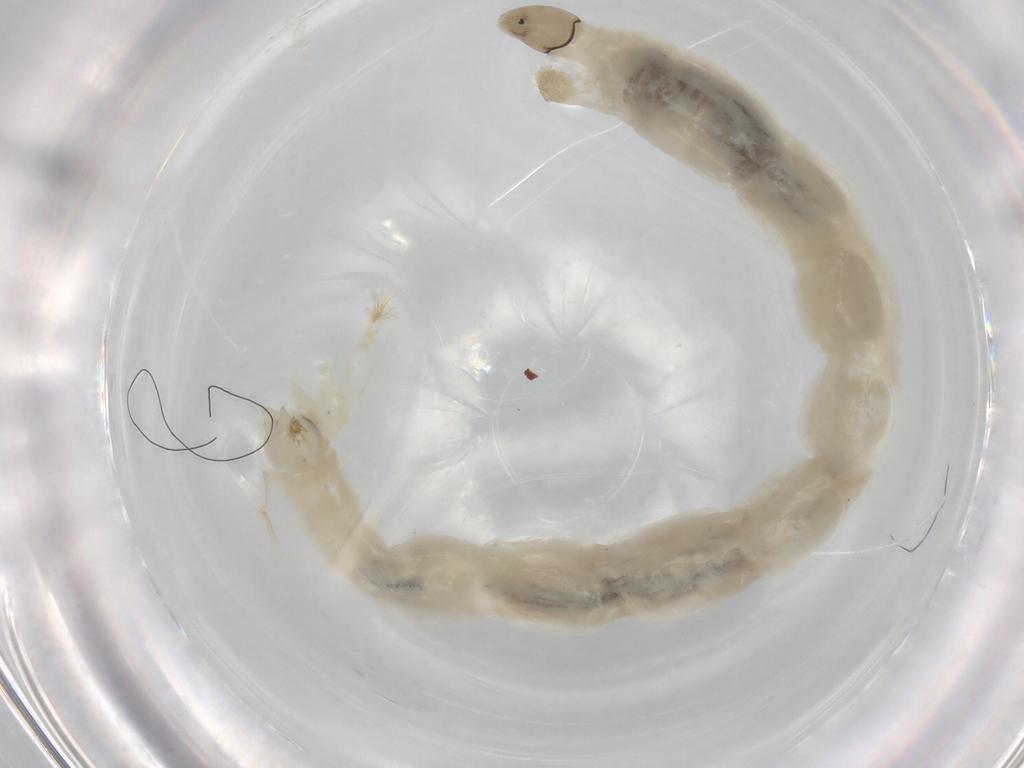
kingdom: Animalia
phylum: Arthropoda
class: Insecta
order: Diptera
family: Chironomidae
